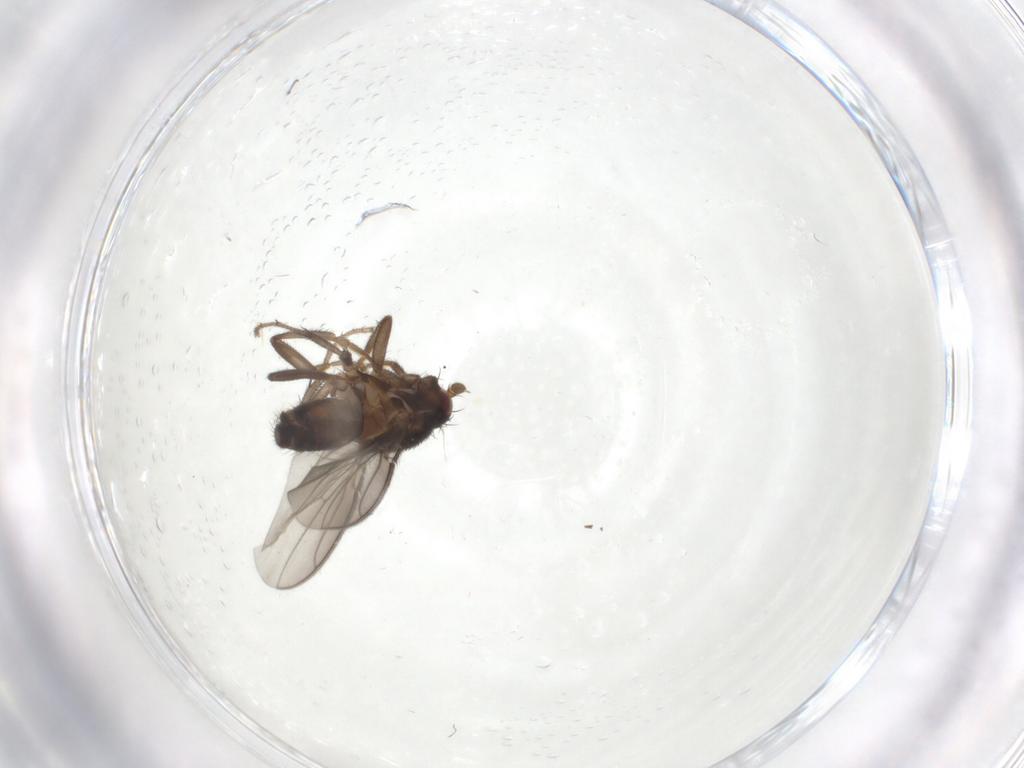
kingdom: Animalia
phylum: Arthropoda
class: Insecta
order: Diptera
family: Sphaeroceridae
